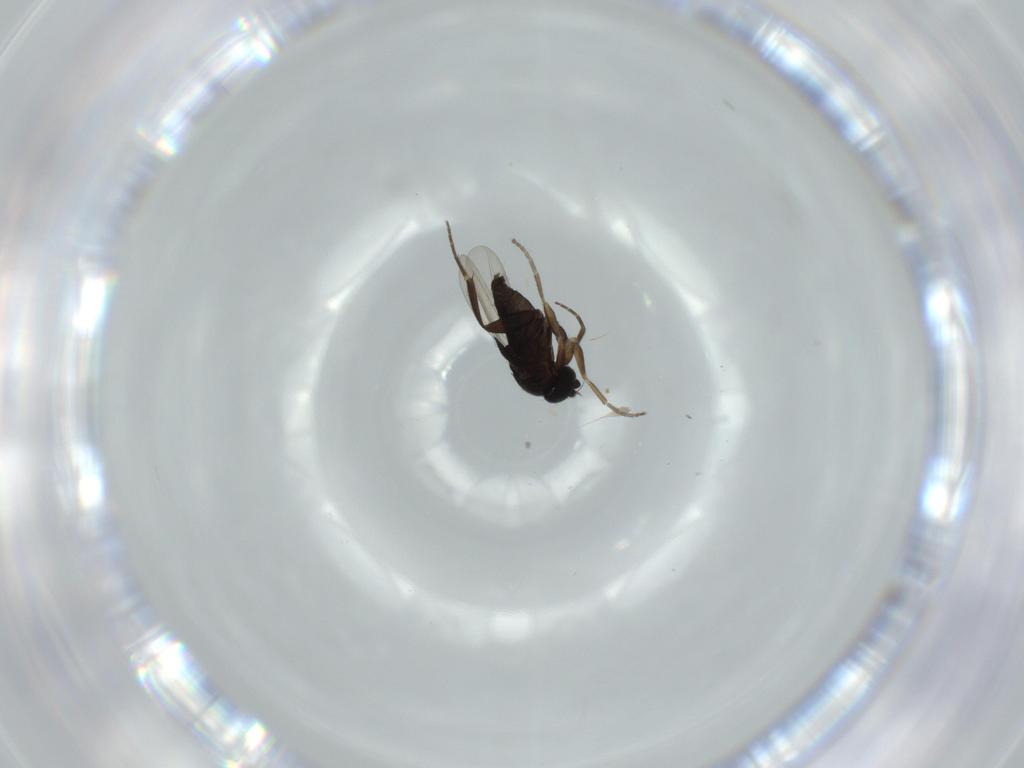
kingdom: Animalia
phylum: Arthropoda
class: Insecta
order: Diptera
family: Phoridae
